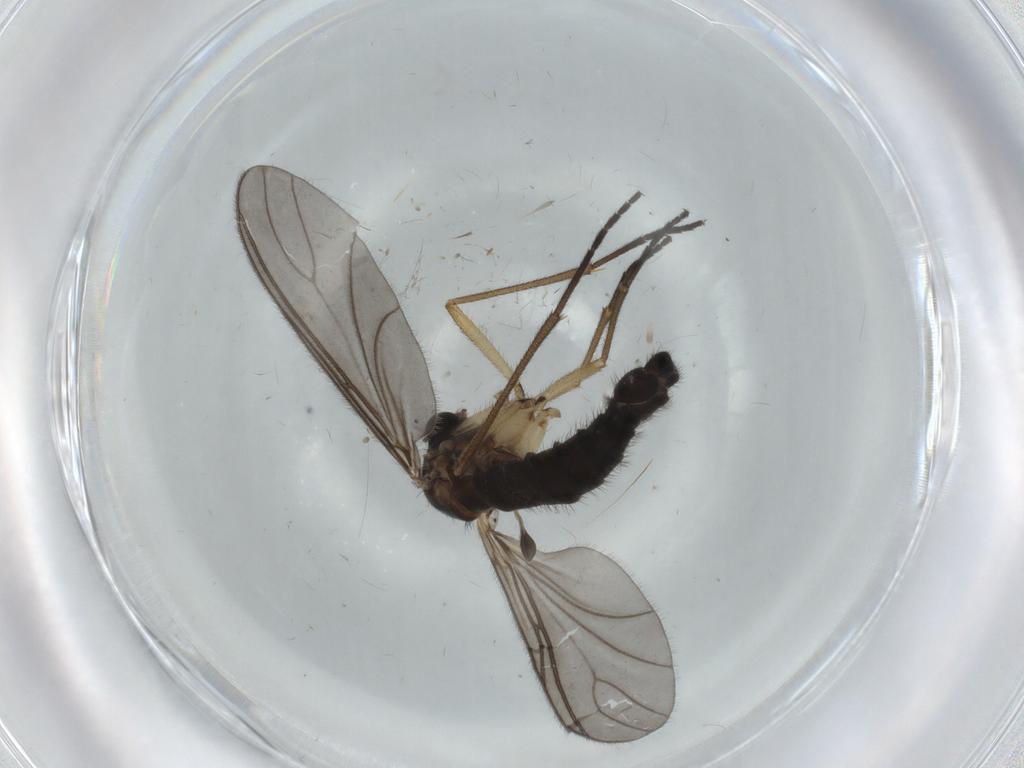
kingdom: Animalia
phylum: Arthropoda
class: Insecta
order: Diptera
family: Sciaridae
